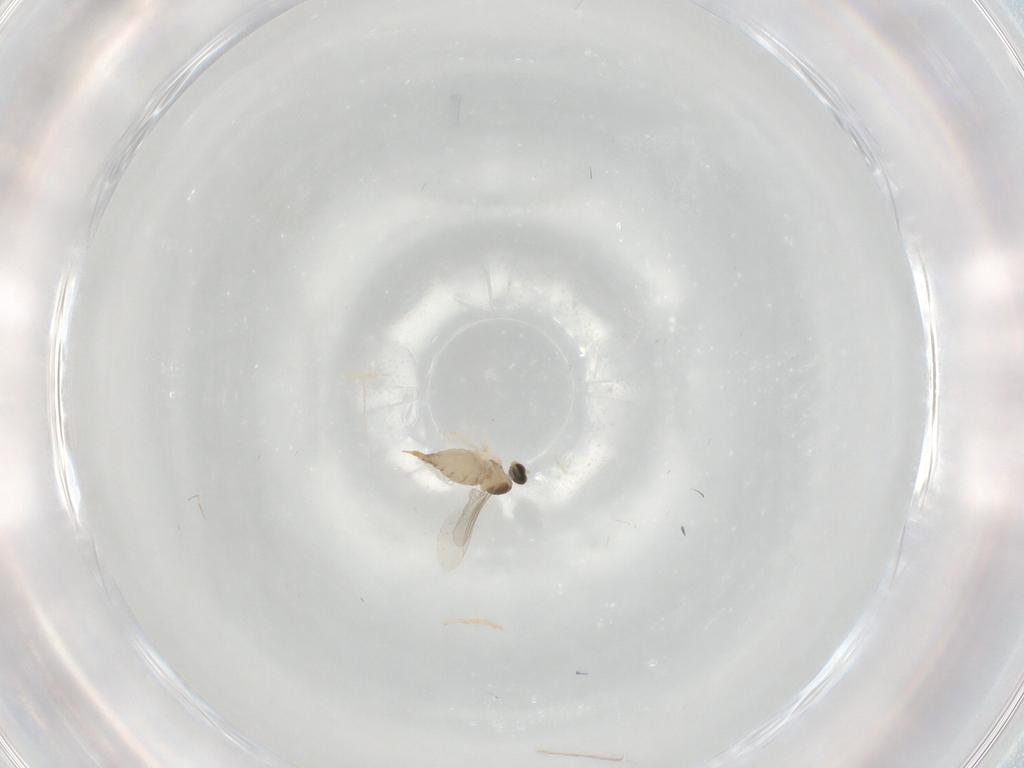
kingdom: Animalia
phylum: Arthropoda
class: Insecta
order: Diptera
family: Cecidomyiidae
